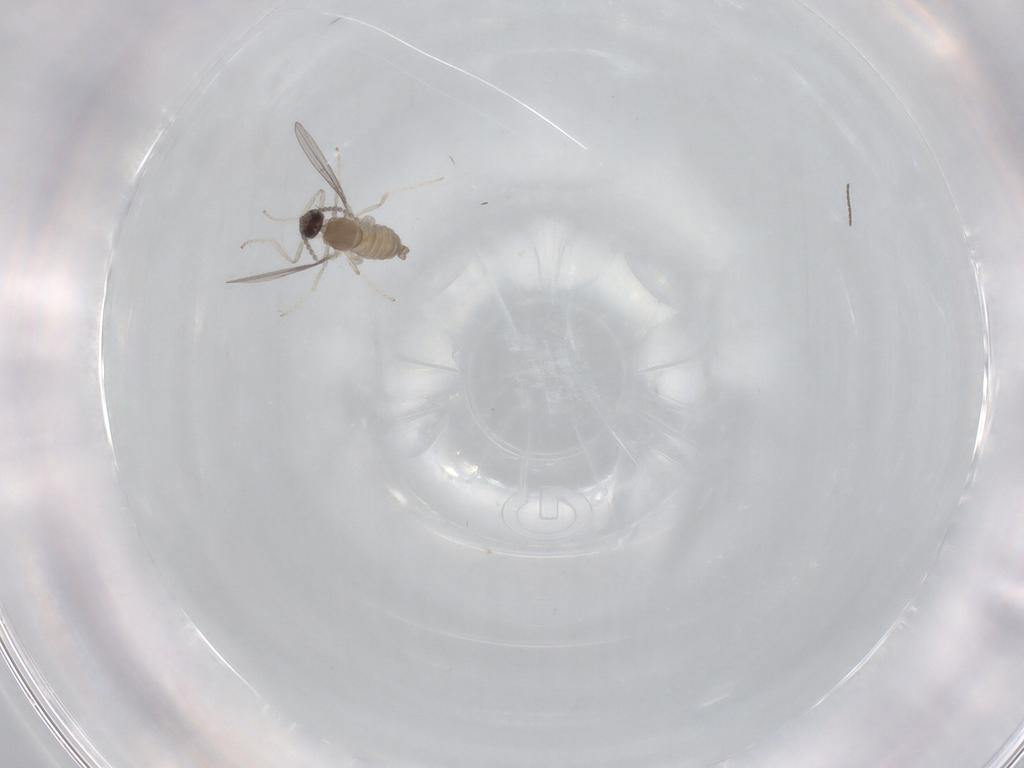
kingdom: Animalia
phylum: Arthropoda
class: Insecta
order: Diptera
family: Cecidomyiidae
